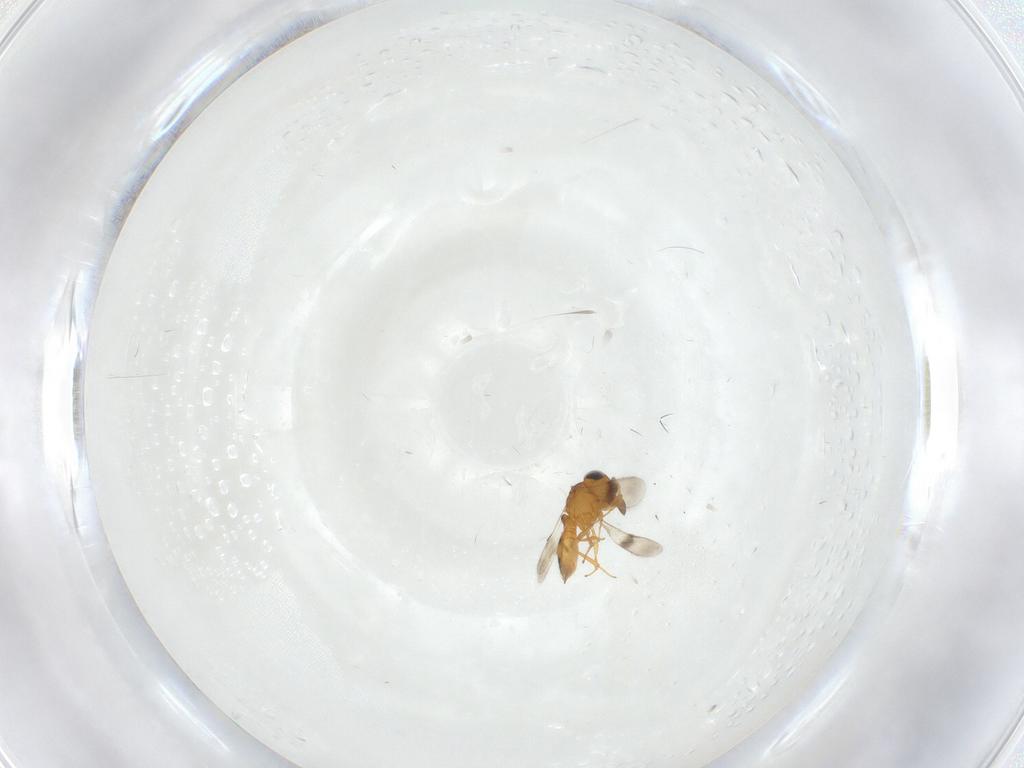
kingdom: Animalia
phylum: Arthropoda
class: Insecta
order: Hymenoptera
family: Scelionidae
